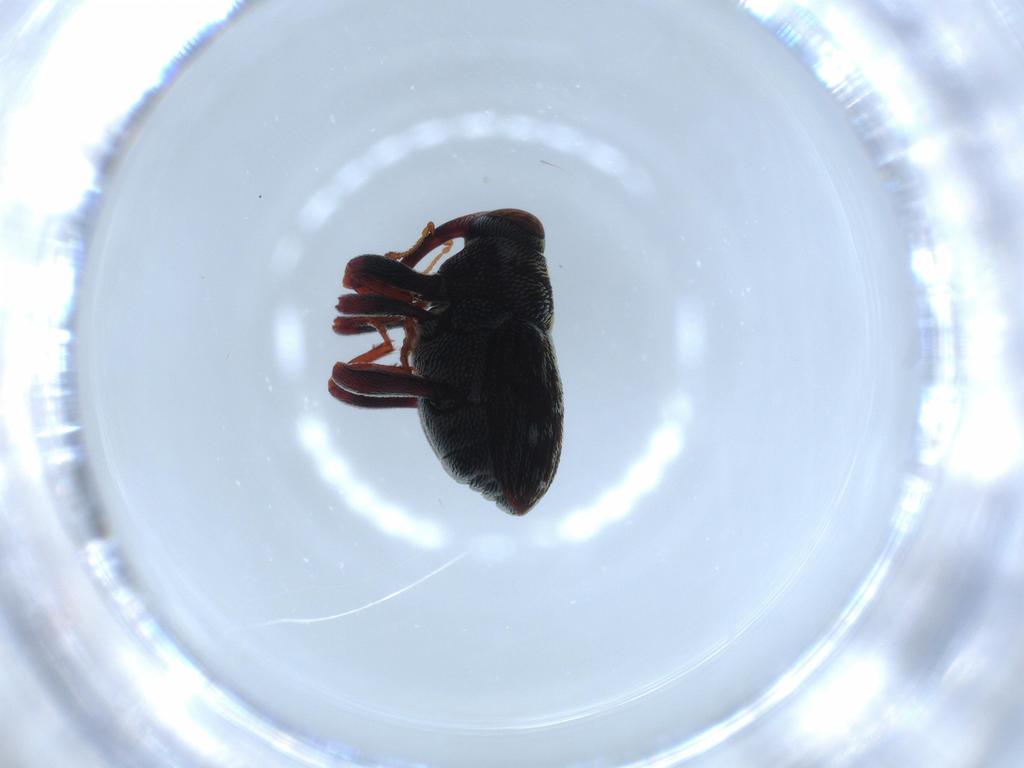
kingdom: Animalia
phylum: Arthropoda
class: Insecta
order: Coleoptera
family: Curculionidae
